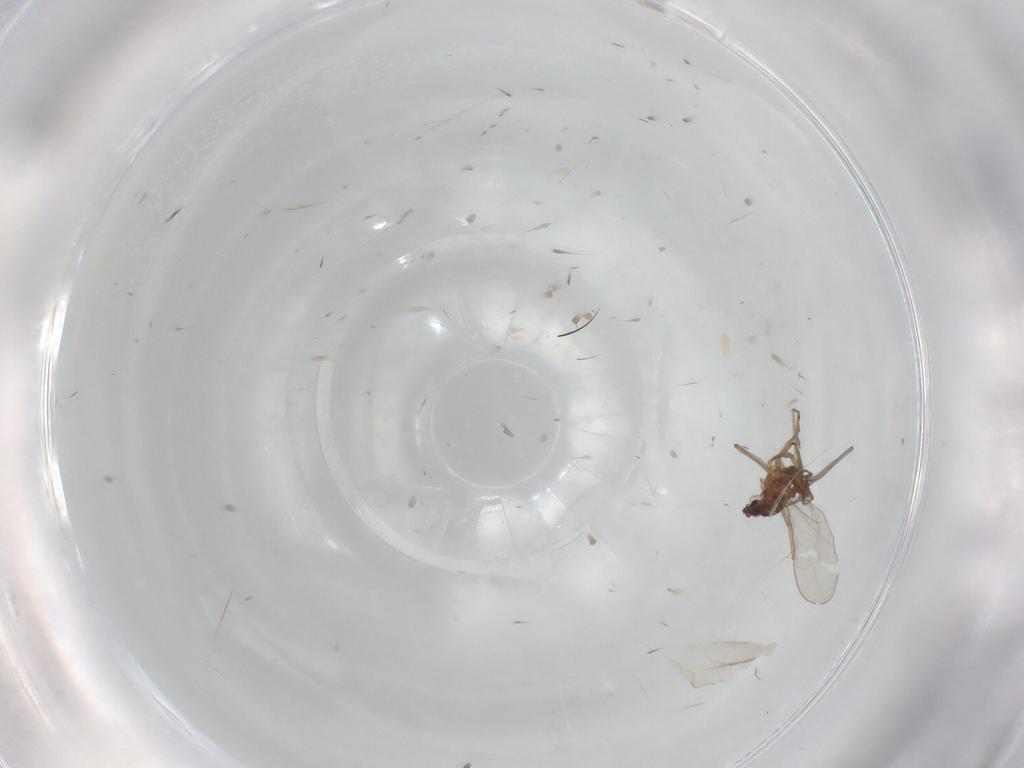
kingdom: Animalia
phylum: Arthropoda
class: Insecta
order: Diptera
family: Cecidomyiidae
